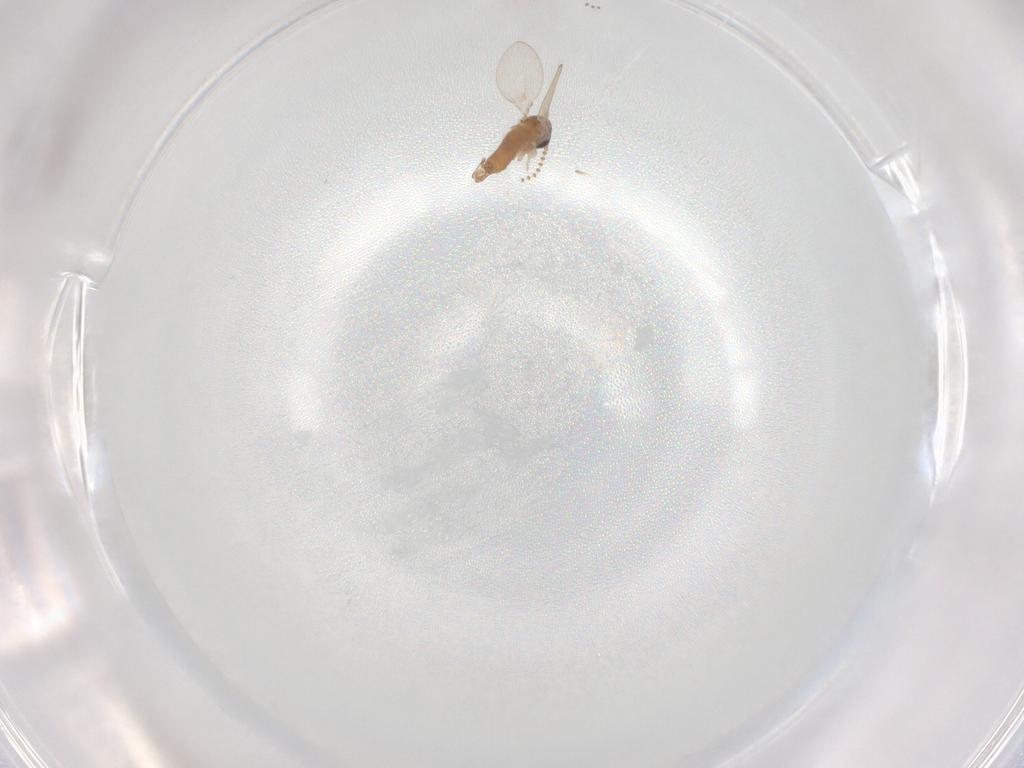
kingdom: Animalia
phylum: Arthropoda
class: Insecta
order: Diptera
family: Psychodidae
